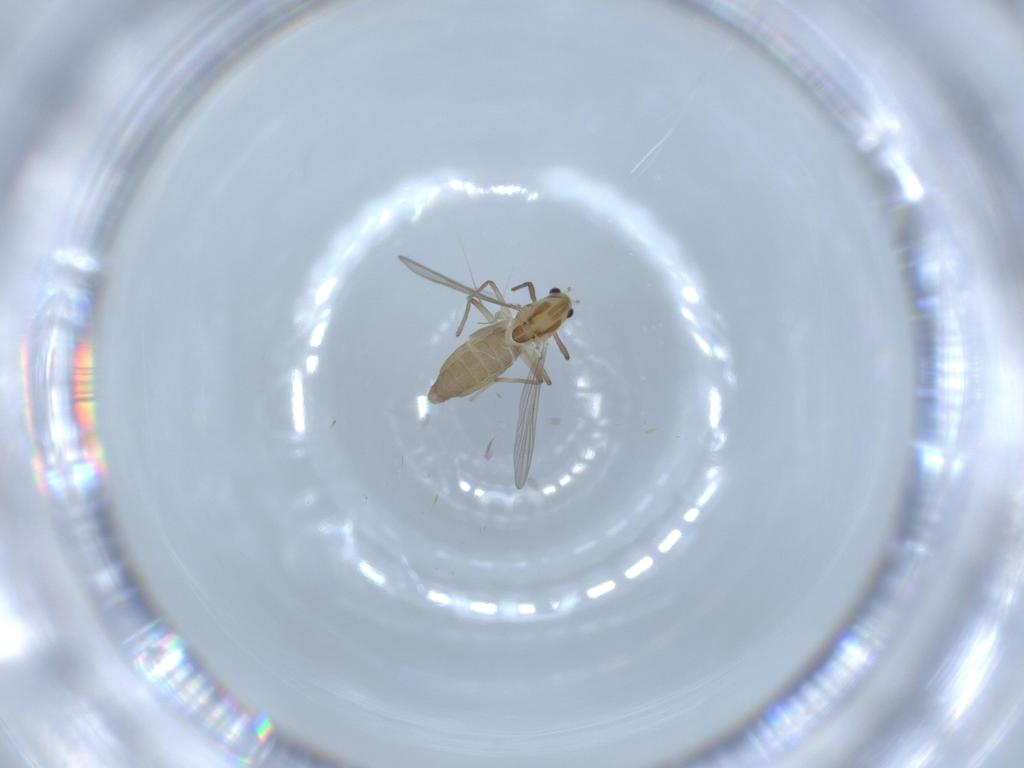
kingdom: Animalia
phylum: Arthropoda
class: Insecta
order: Diptera
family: Chironomidae
